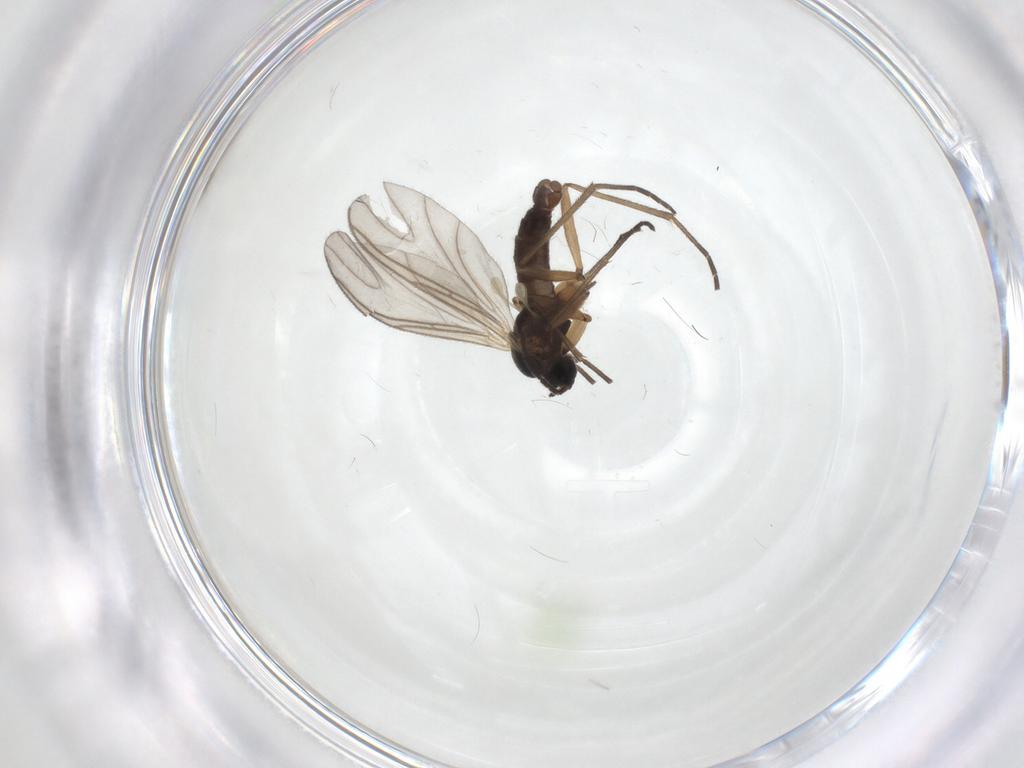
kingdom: Animalia
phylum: Arthropoda
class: Insecta
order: Diptera
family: Sciaridae
